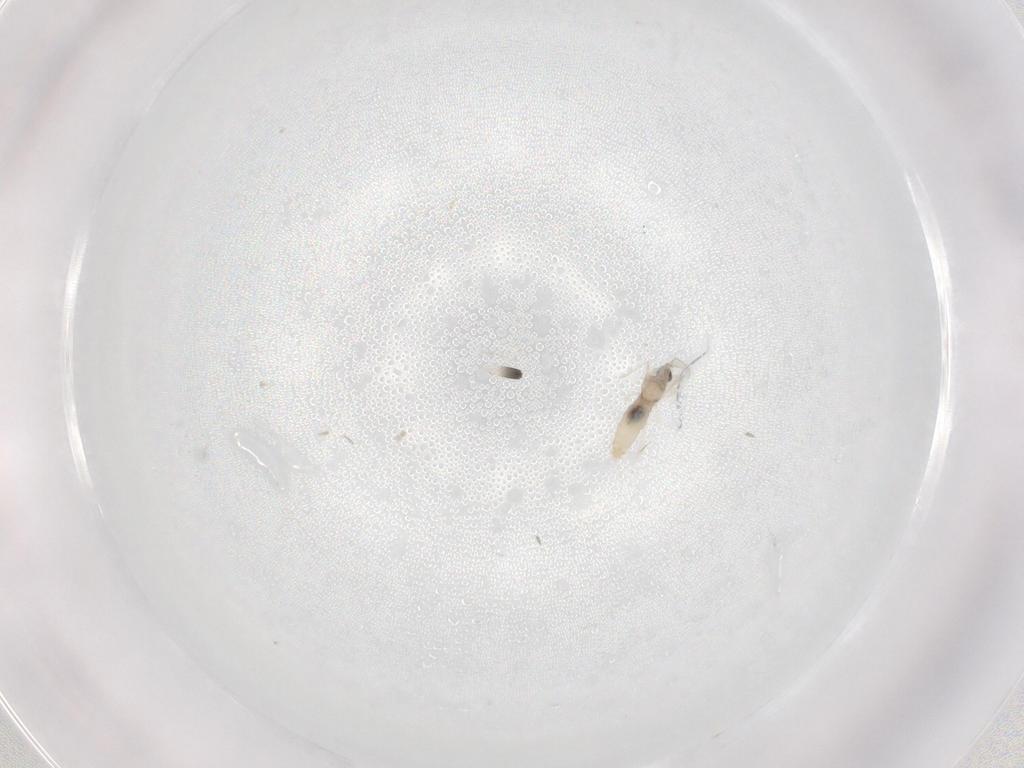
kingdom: Animalia
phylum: Arthropoda
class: Insecta
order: Diptera
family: Cecidomyiidae
